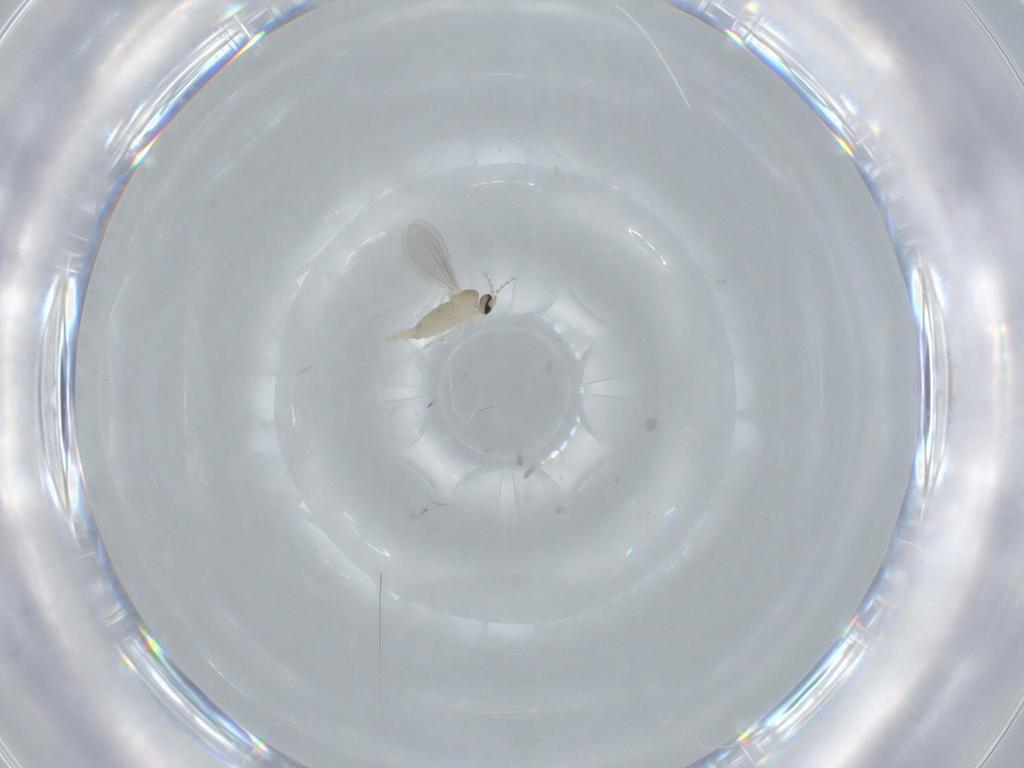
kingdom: Animalia
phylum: Arthropoda
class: Insecta
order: Diptera
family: Cecidomyiidae
